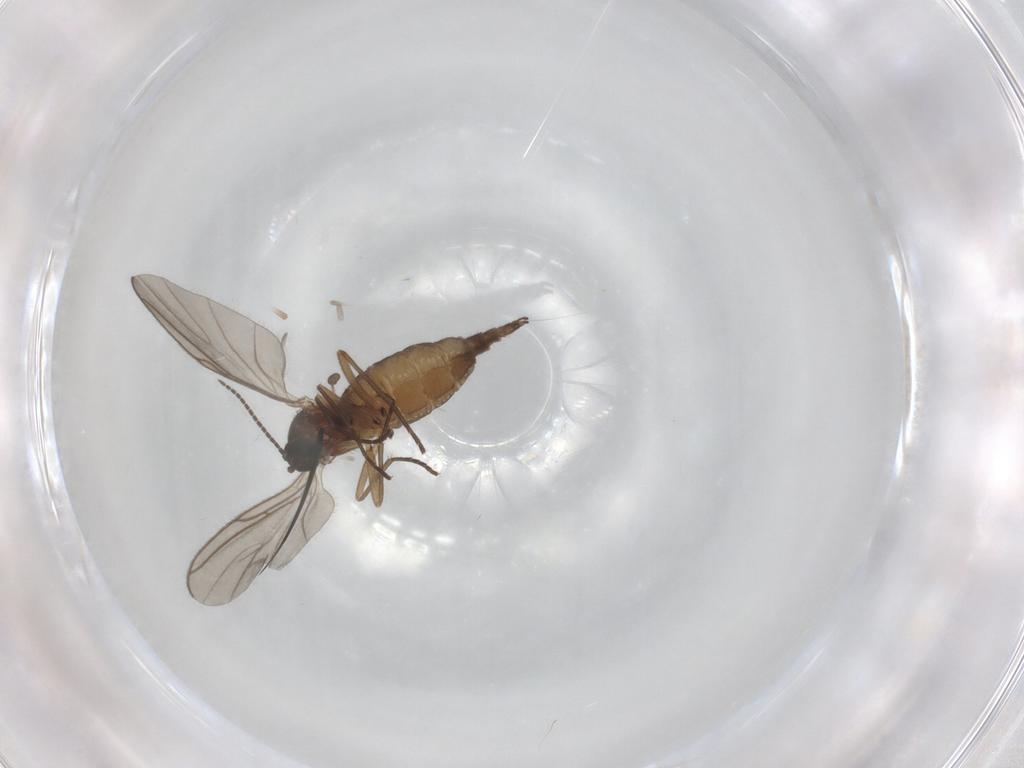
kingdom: Animalia
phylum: Arthropoda
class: Insecta
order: Diptera
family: Sciaridae
